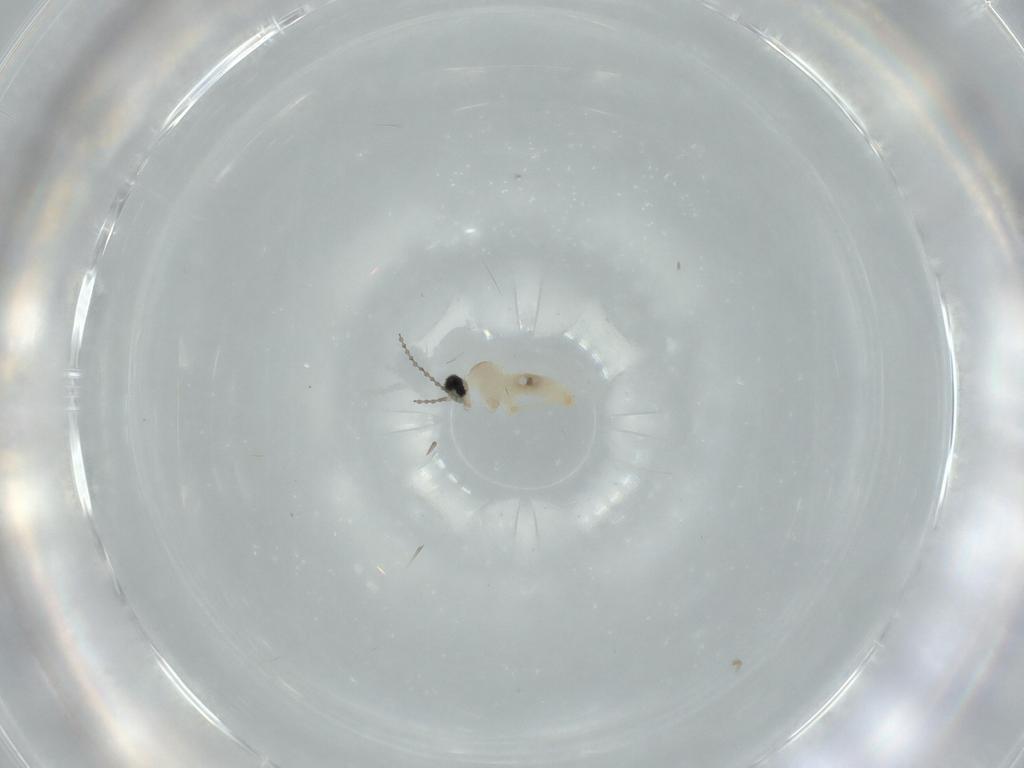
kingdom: Animalia
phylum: Arthropoda
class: Insecta
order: Diptera
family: Cecidomyiidae
